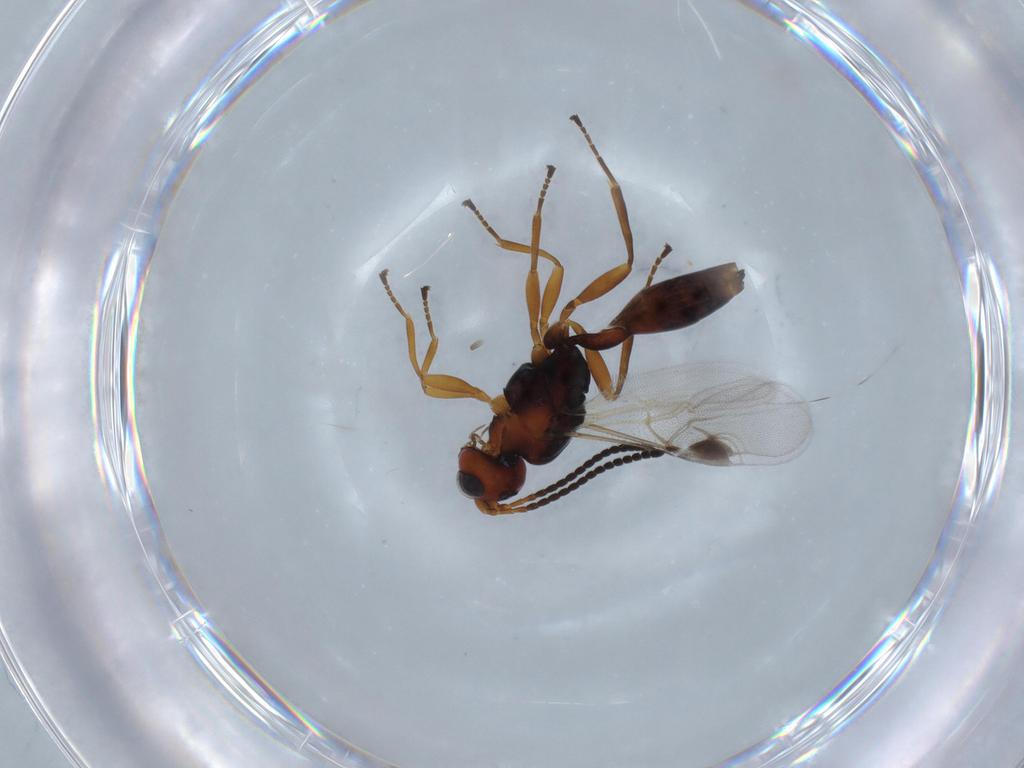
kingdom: Animalia
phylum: Arthropoda
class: Insecta
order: Hymenoptera
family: Braconidae
